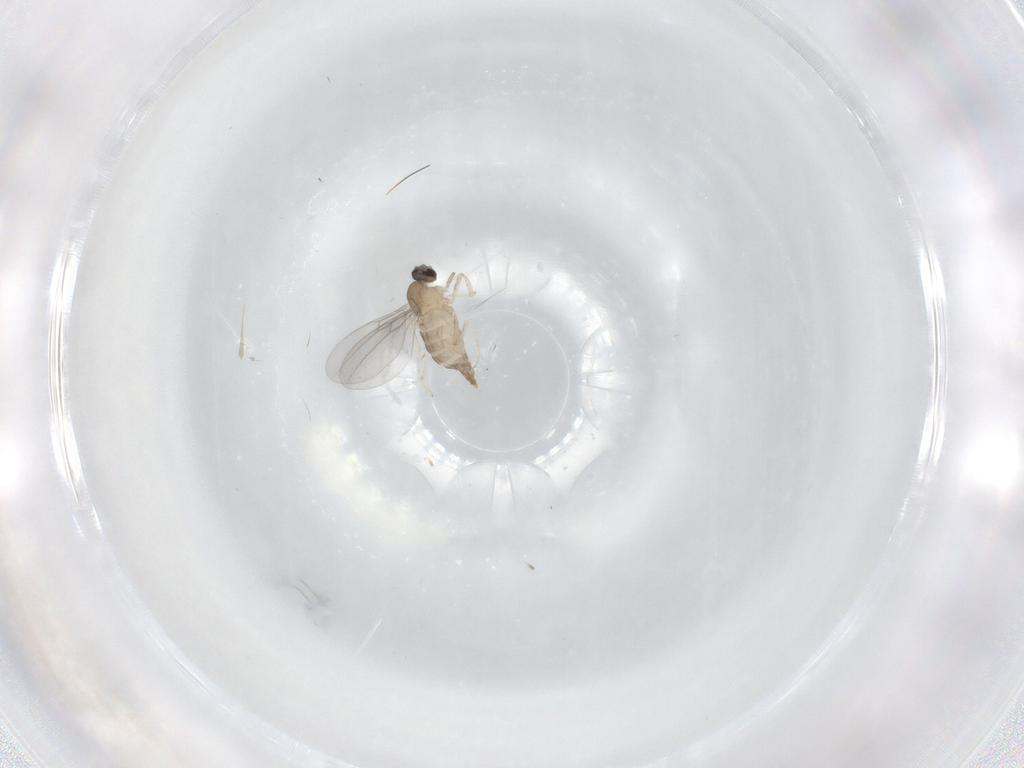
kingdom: Animalia
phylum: Arthropoda
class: Insecta
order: Diptera
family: Cecidomyiidae
